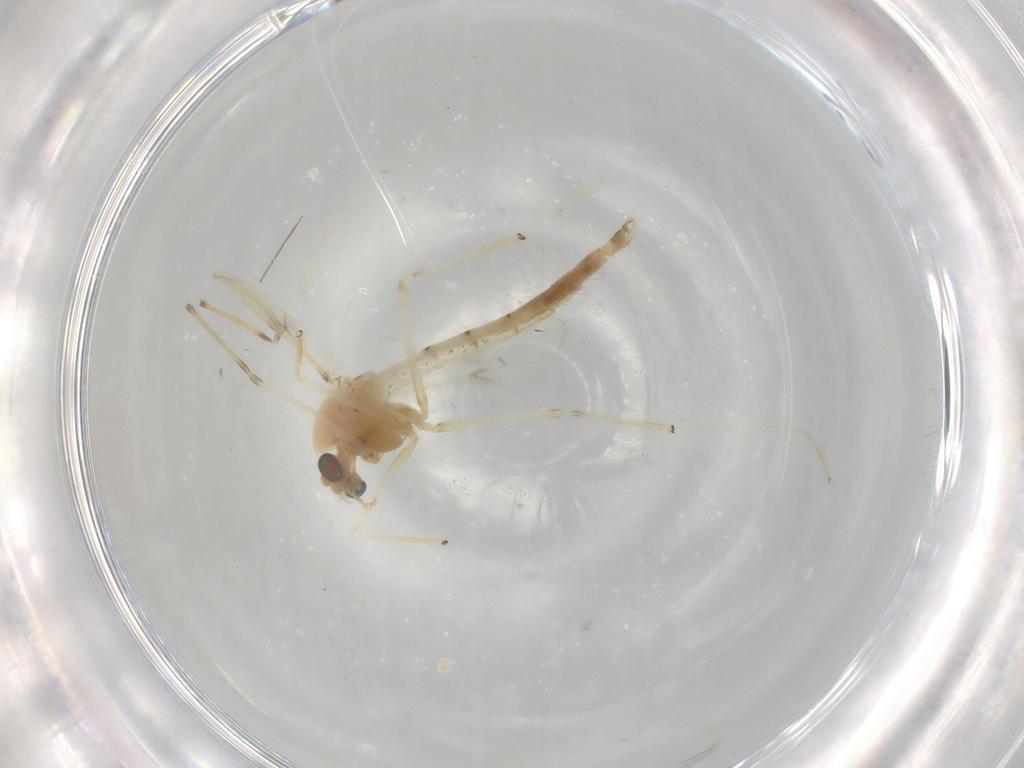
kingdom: Animalia
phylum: Arthropoda
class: Insecta
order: Diptera
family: Chironomidae
